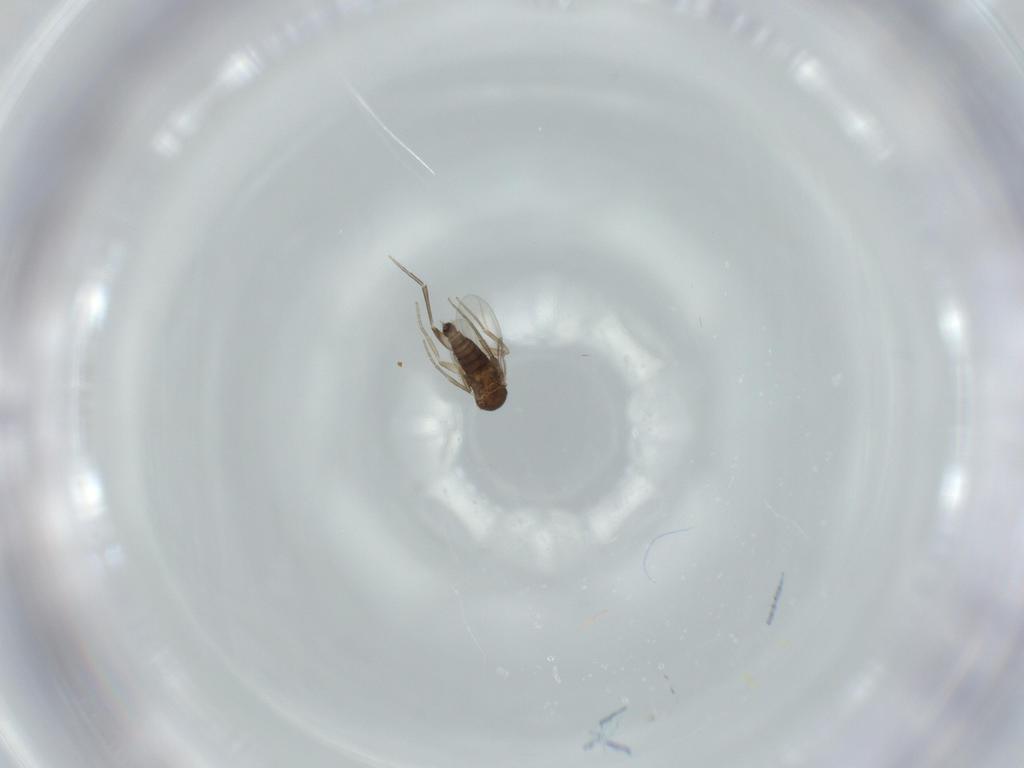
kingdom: Animalia
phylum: Arthropoda
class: Insecta
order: Diptera
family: Phoridae
